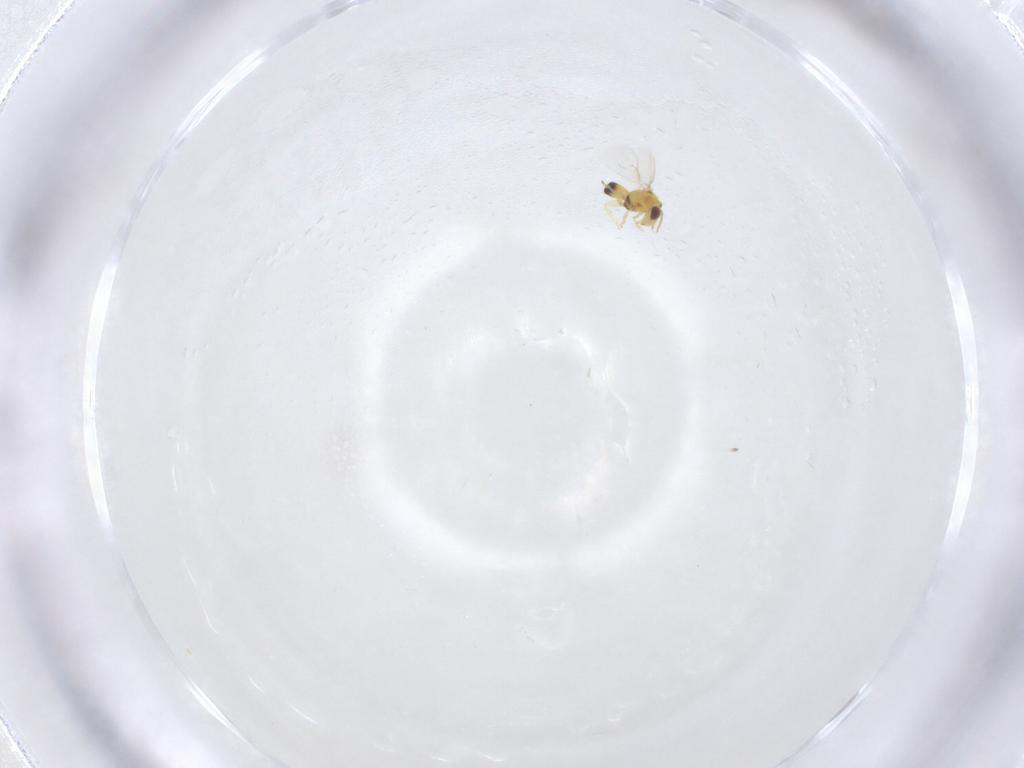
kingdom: Animalia
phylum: Arthropoda
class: Insecta
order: Hymenoptera
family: Eulophidae
